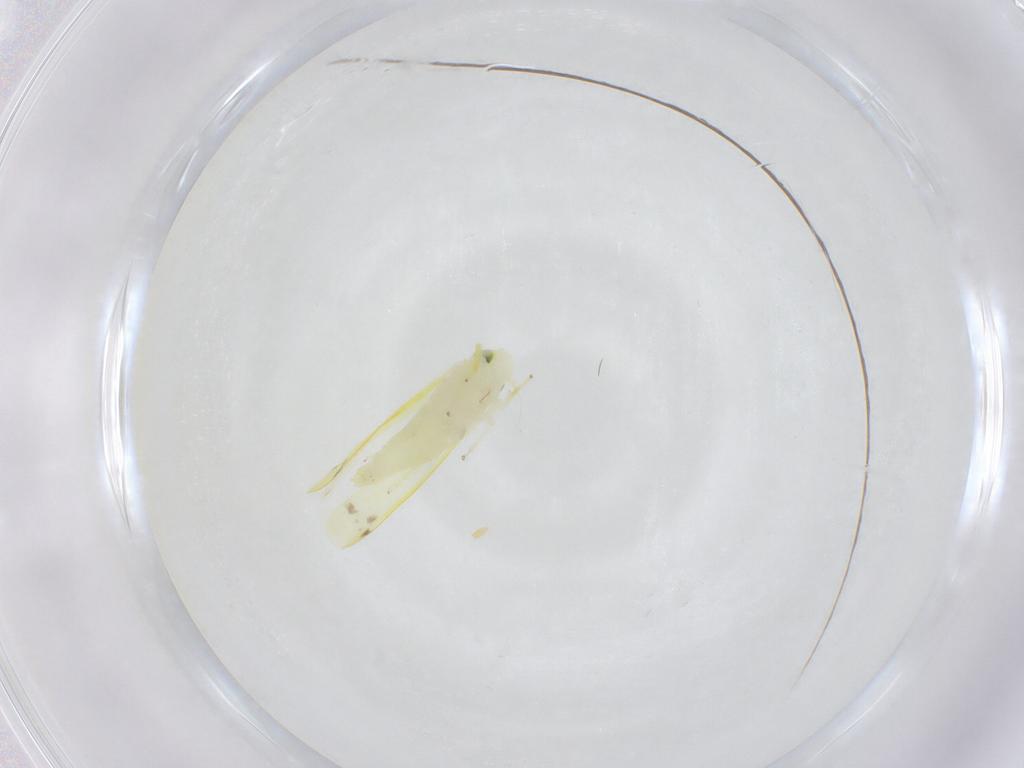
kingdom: Animalia
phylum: Arthropoda
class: Insecta
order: Hemiptera
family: Cicadellidae
